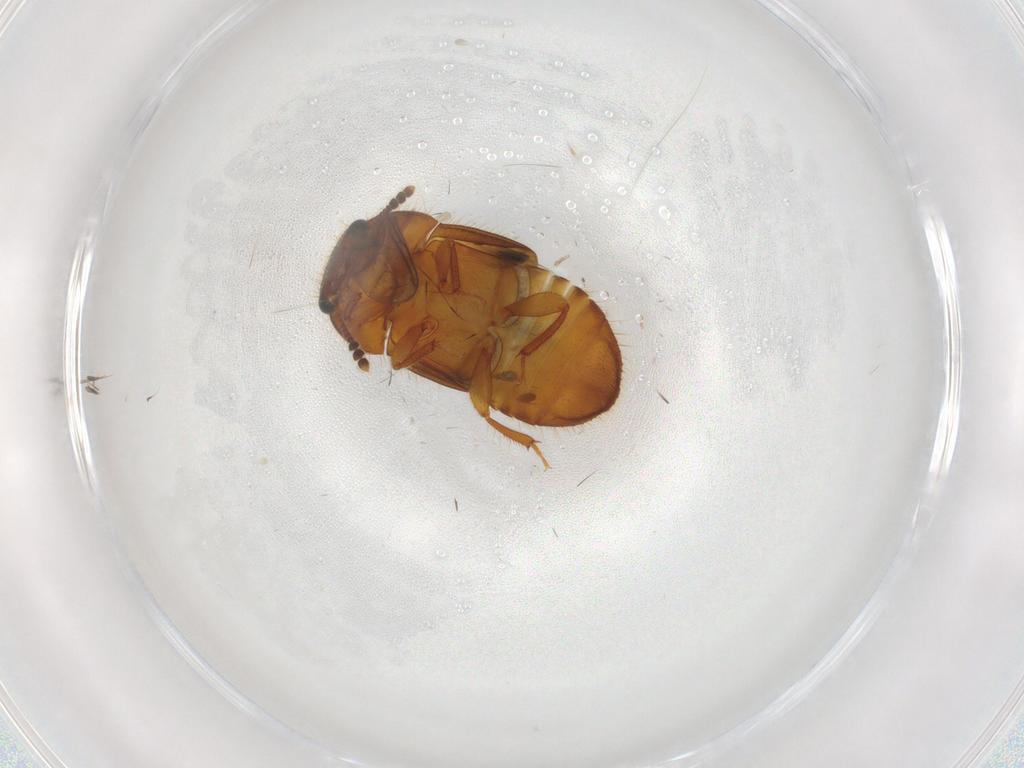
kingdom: Animalia
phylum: Arthropoda
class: Insecta
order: Coleoptera
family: Nitidulidae
